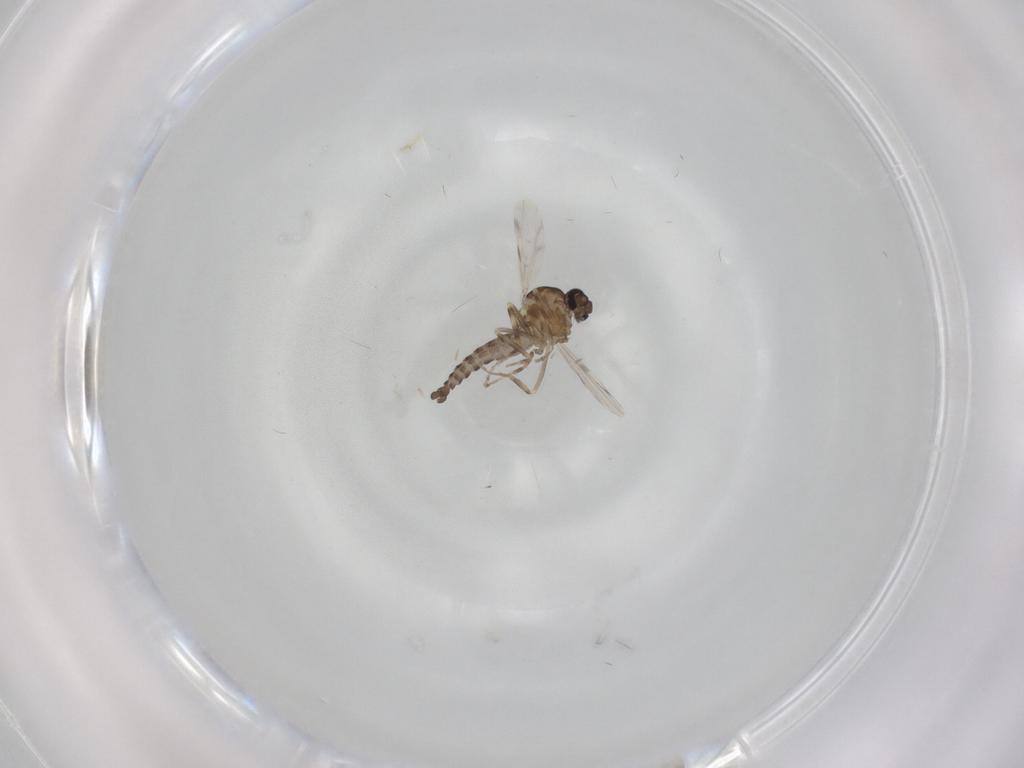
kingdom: Animalia
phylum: Arthropoda
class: Insecta
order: Diptera
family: Ceratopogonidae
